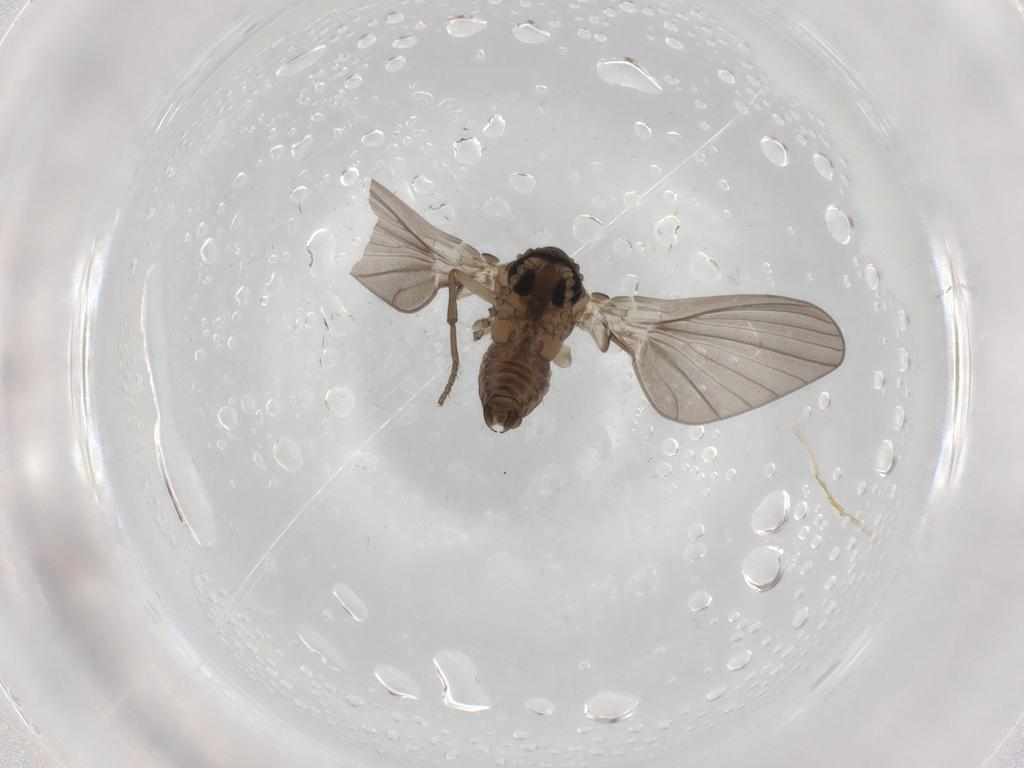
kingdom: Animalia
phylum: Arthropoda
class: Insecta
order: Diptera
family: Psychodidae
